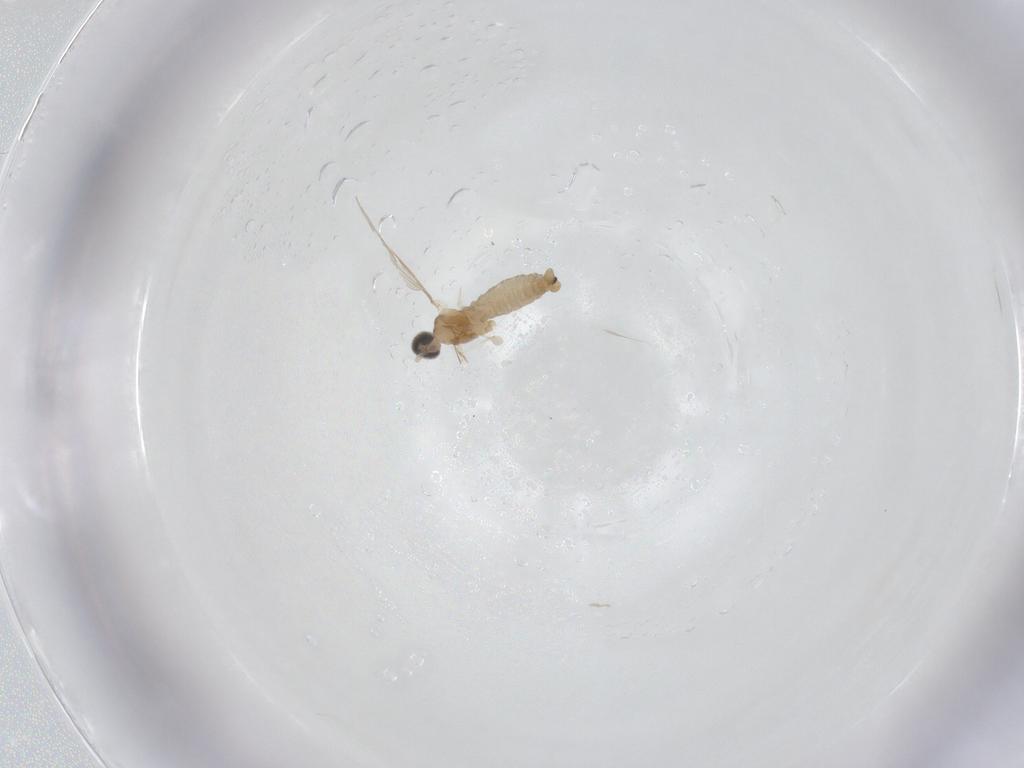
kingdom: Animalia
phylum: Arthropoda
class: Insecta
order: Diptera
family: Cecidomyiidae
